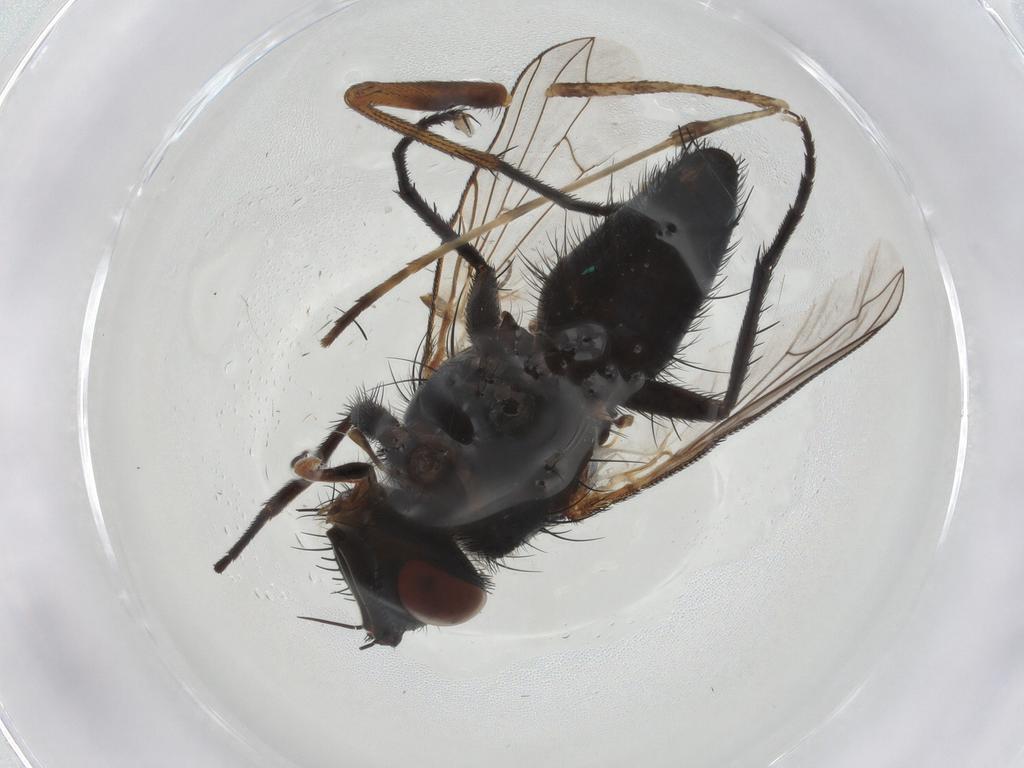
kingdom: Animalia
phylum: Arthropoda
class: Insecta
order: Diptera
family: Tachinidae
